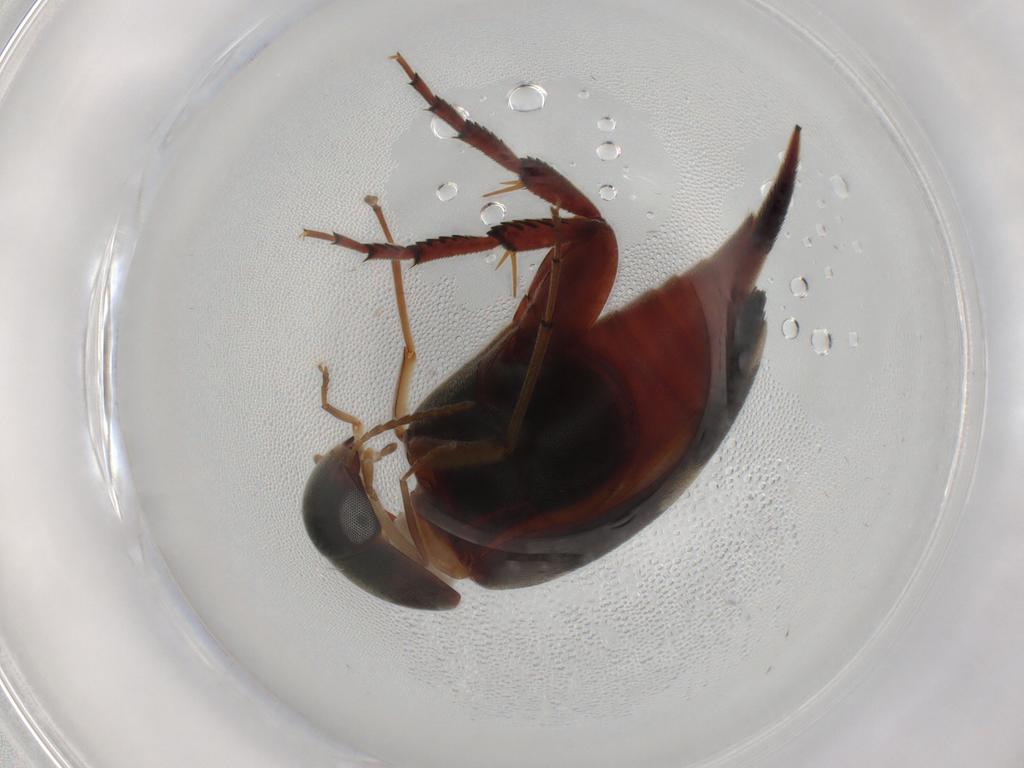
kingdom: Animalia
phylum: Arthropoda
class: Insecta
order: Coleoptera
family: Mordellidae
